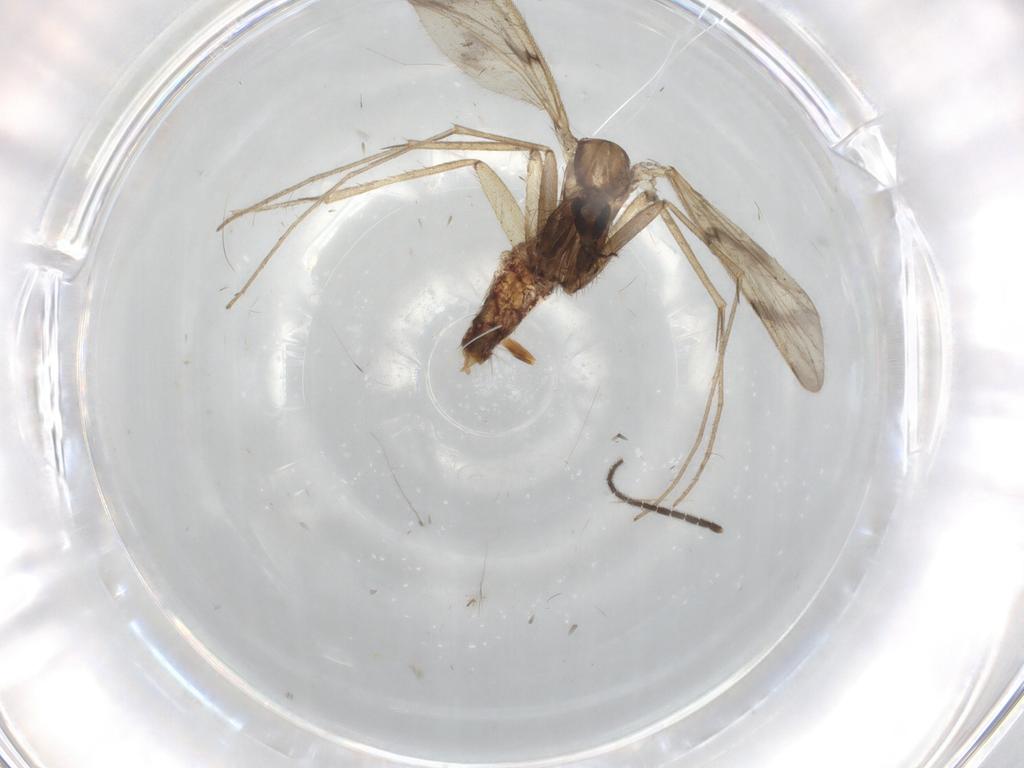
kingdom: Animalia
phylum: Arthropoda
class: Insecta
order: Diptera
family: Sciaridae
